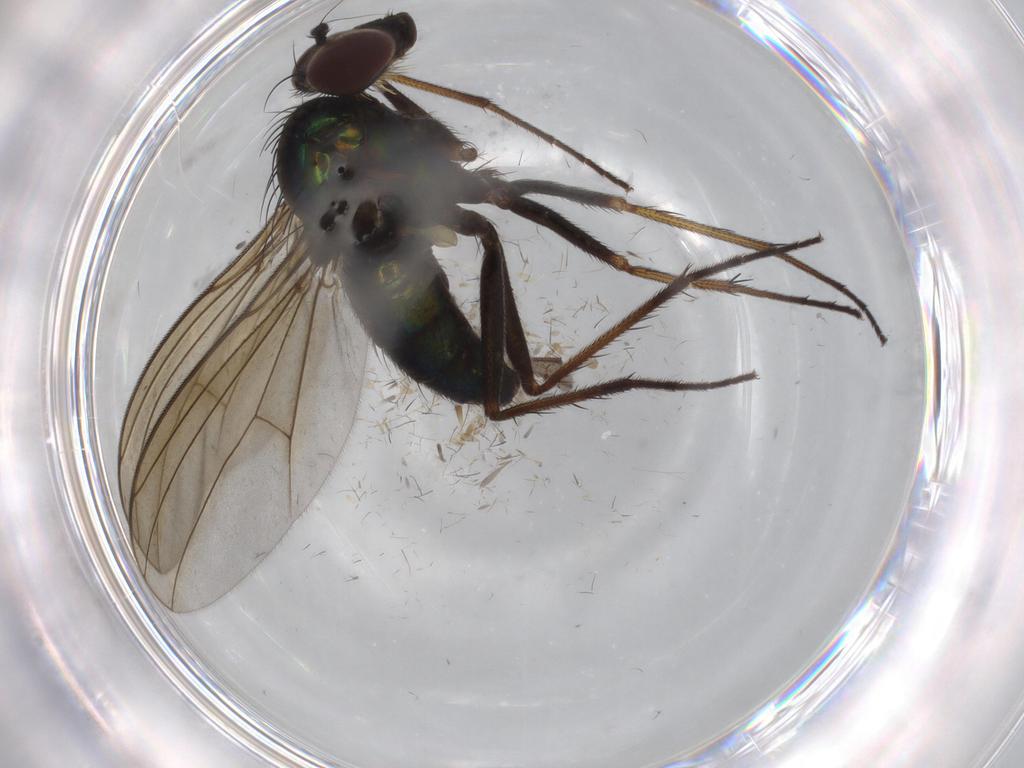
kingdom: Animalia
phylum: Arthropoda
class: Insecta
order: Diptera
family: Dolichopodidae
